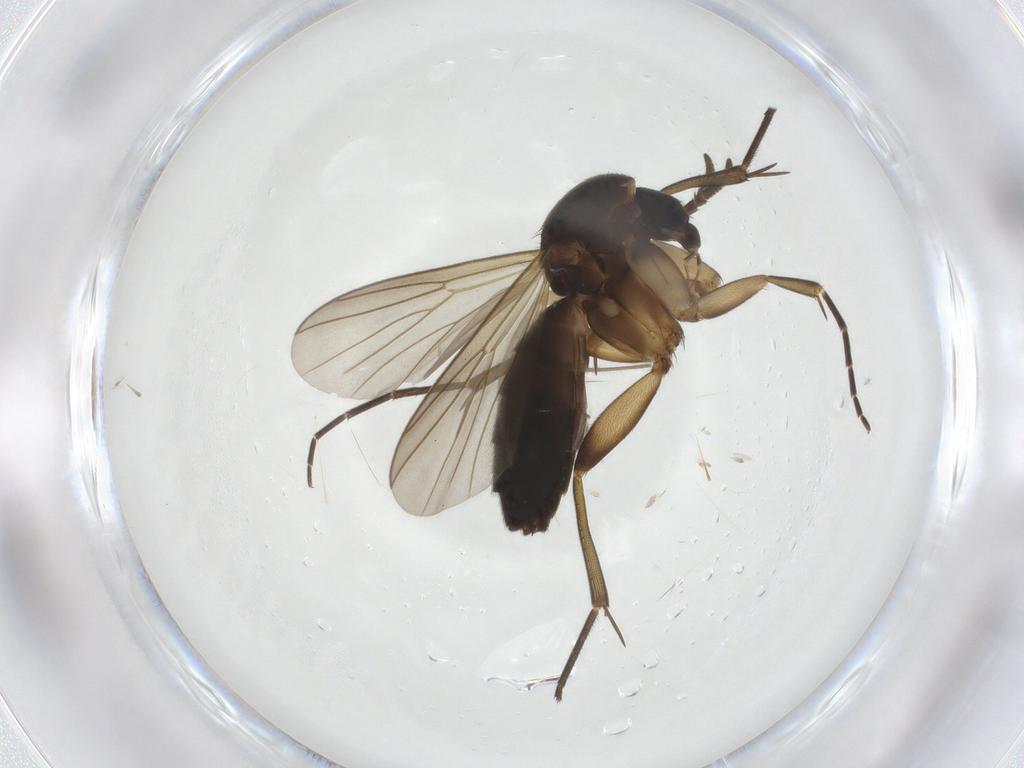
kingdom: Animalia
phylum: Arthropoda
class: Insecta
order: Diptera
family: Mycetophilidae
